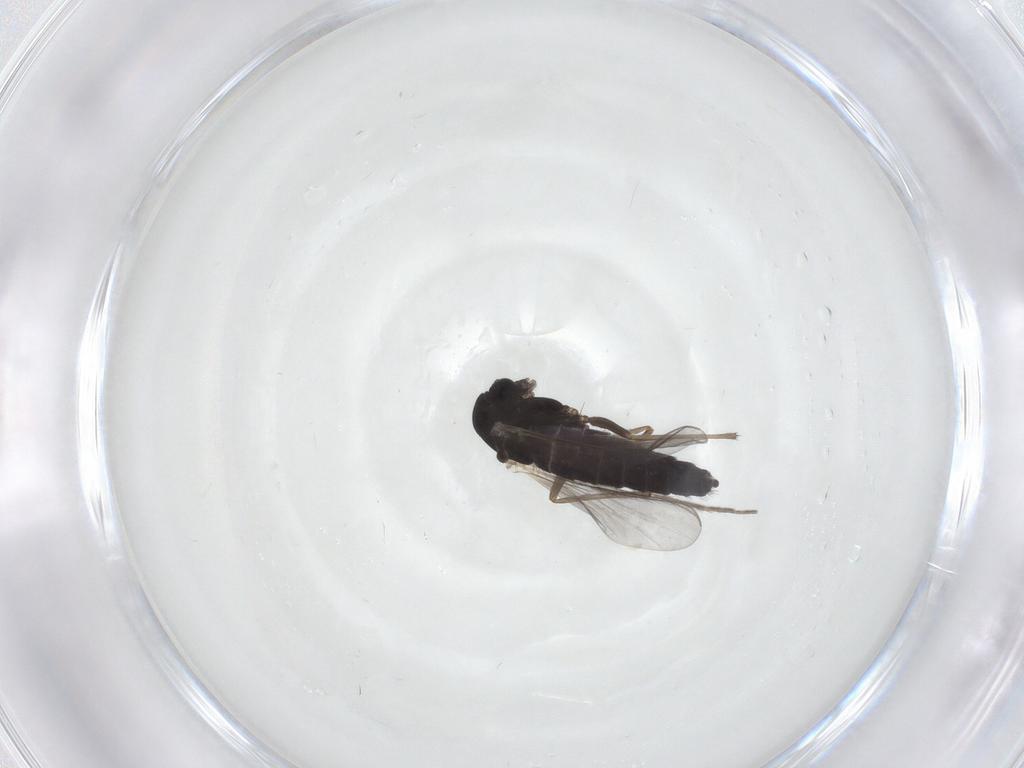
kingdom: Animalia
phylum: Arthropoda
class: Insecta
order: Diptera
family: Chironomidae
